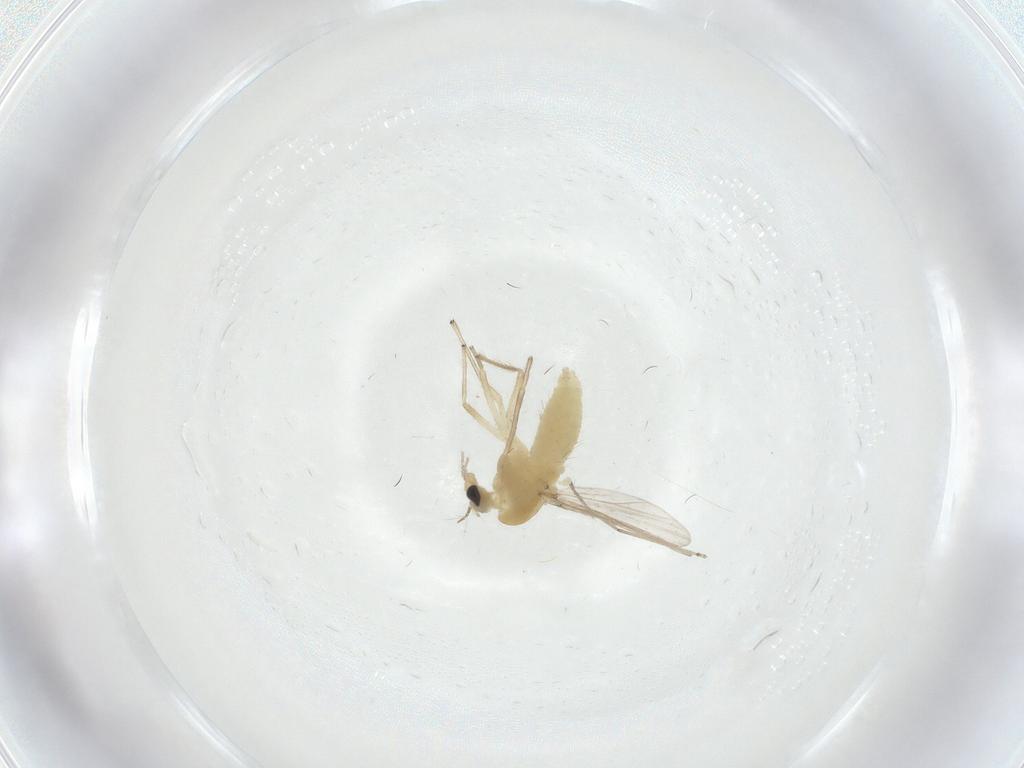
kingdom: Animalia
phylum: Arthropoda
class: Insecta
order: Diptera
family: Chironomidae
